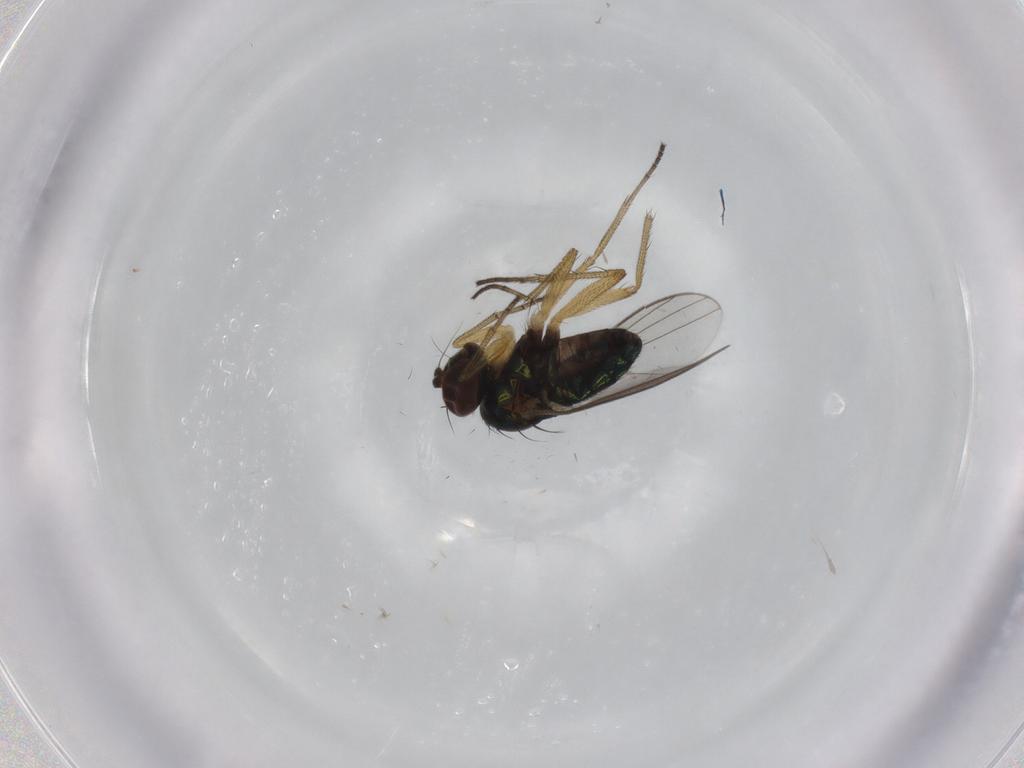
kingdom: Animalia
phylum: Arthropoda
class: Insecta
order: Diptera
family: Dolichopodidae
